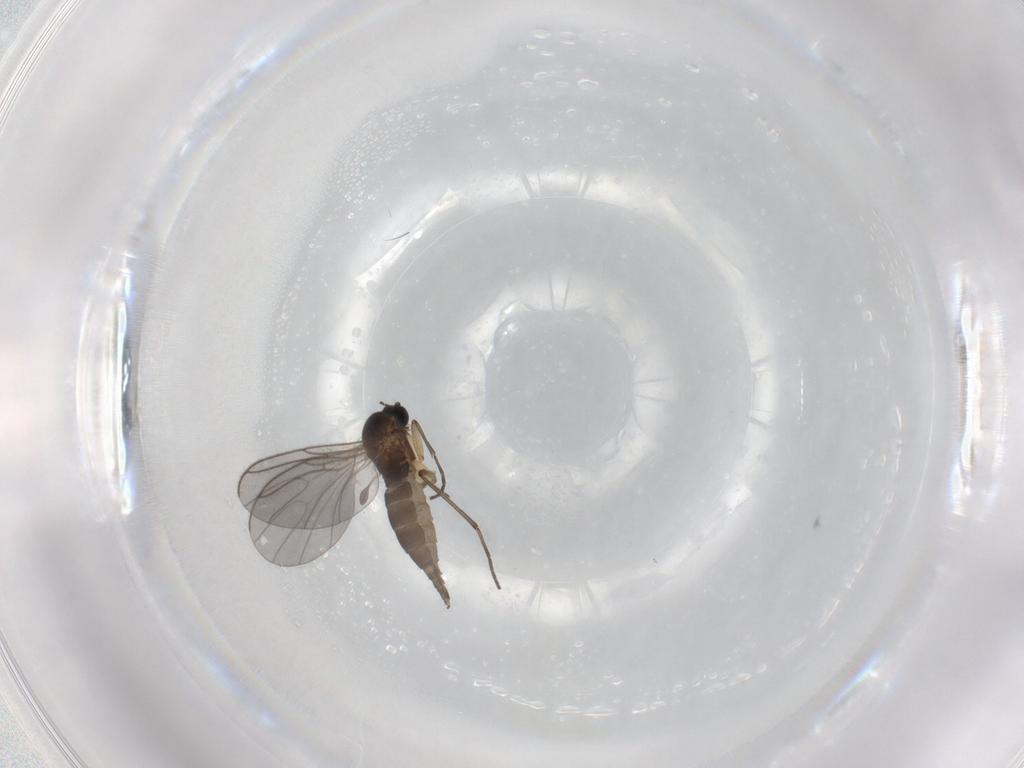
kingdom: Animalia
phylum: Arthropoda
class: Insecta
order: Diptera
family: Sciaridae
